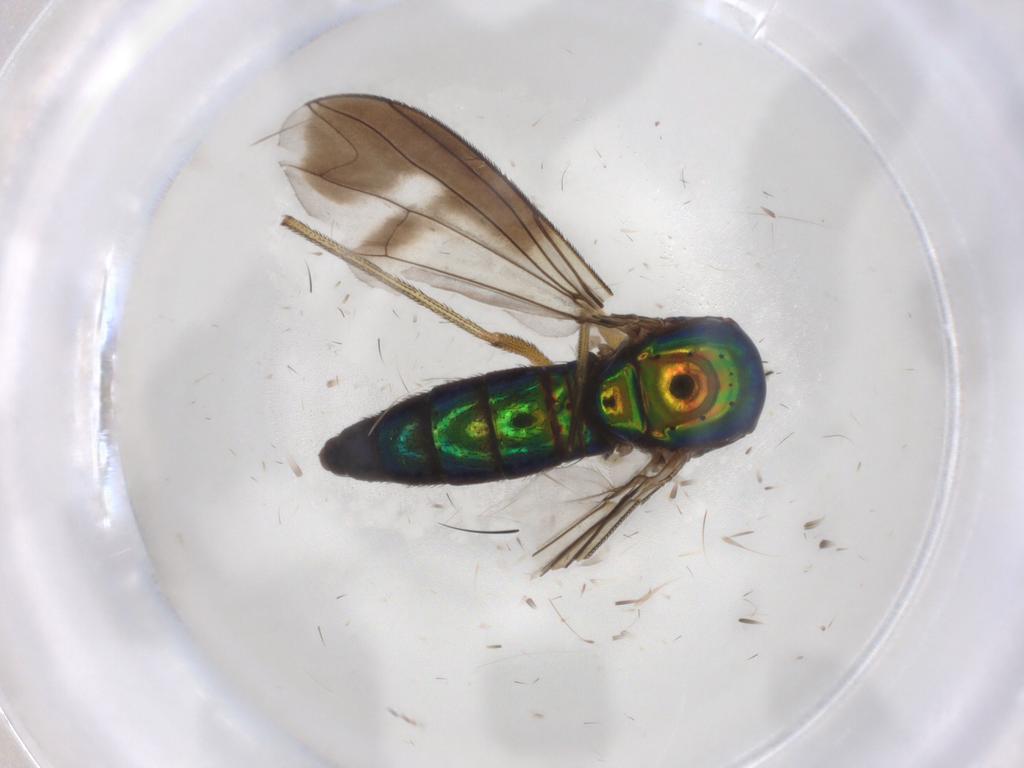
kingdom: Animalia
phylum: Arthropoda
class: Insecta
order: Diptera
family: Dolichopodidae
